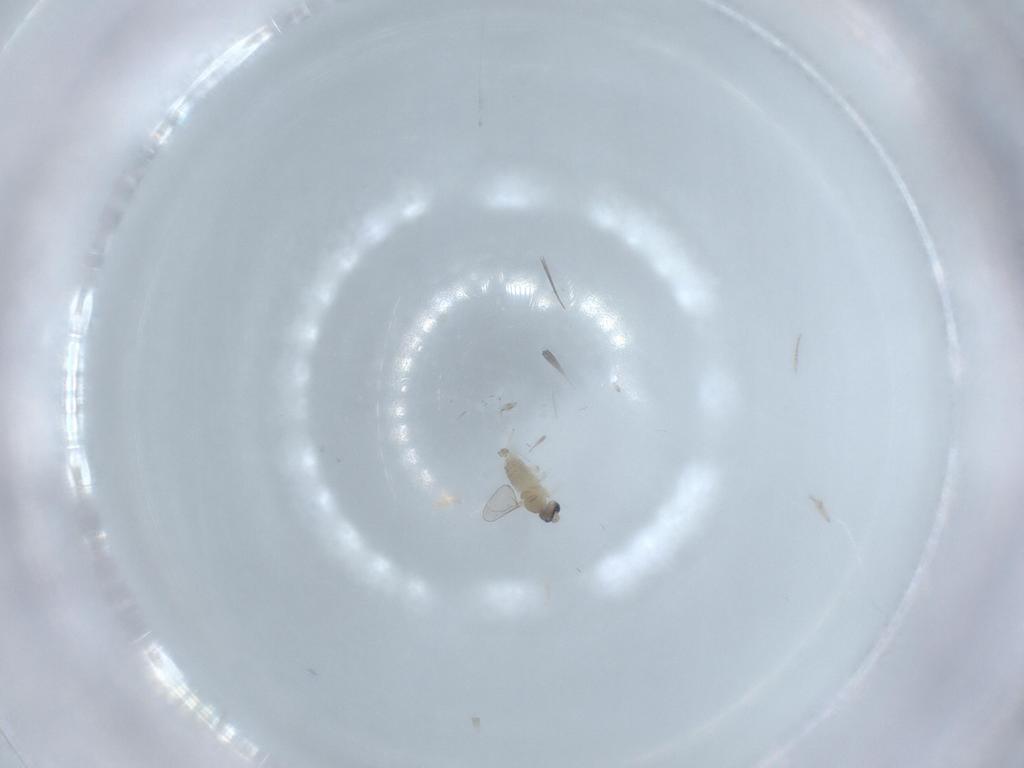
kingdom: Animalia
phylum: Arthropoda
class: Insecta
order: Diptera
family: Cecidomyiidae
